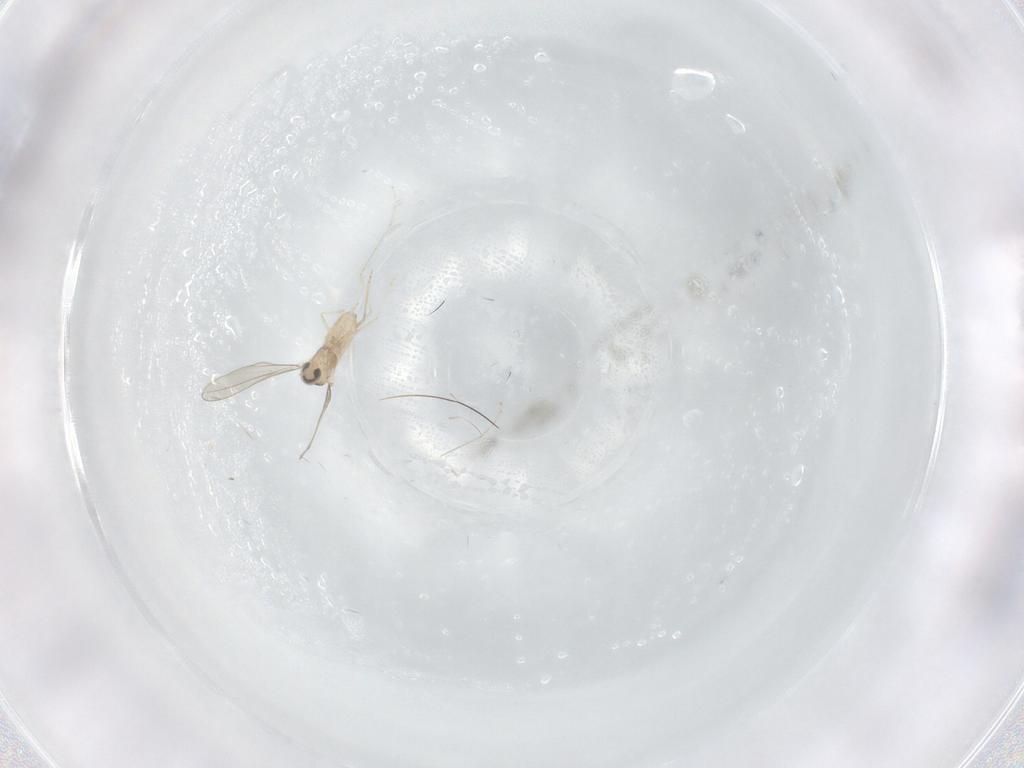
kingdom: Animalia
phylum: Arthropoda
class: Insecta
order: Diptera
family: Cecidomyiidae
